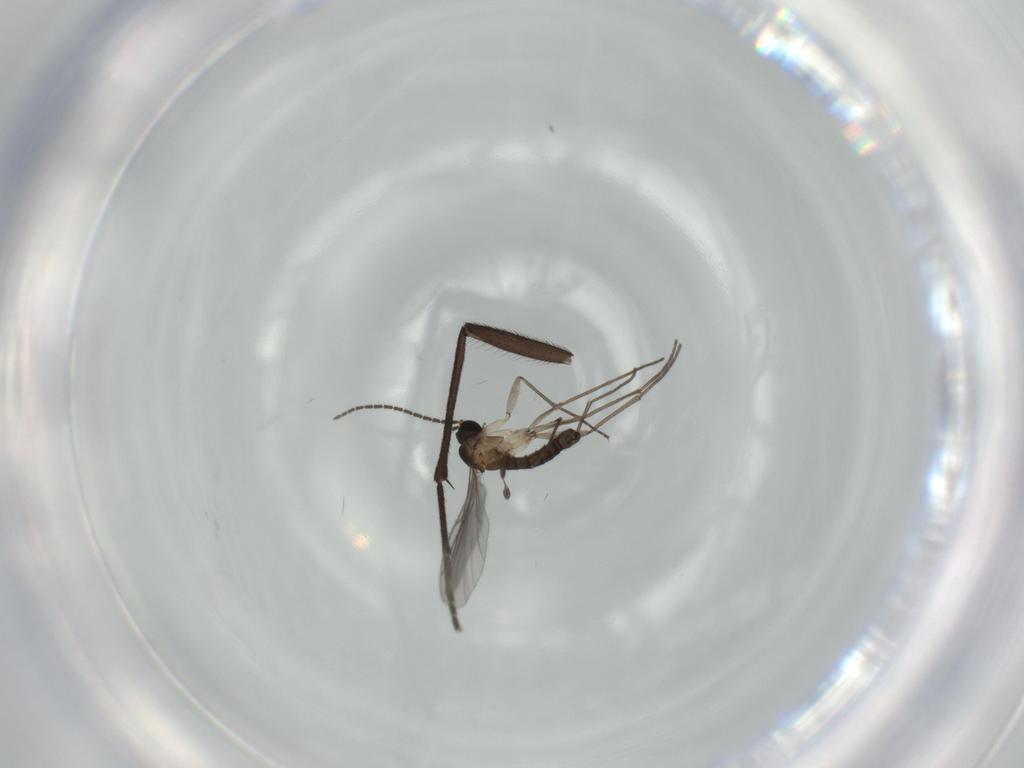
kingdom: Animalia
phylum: Arthropoda
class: Insecta
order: Diptera
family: Sciaridae
